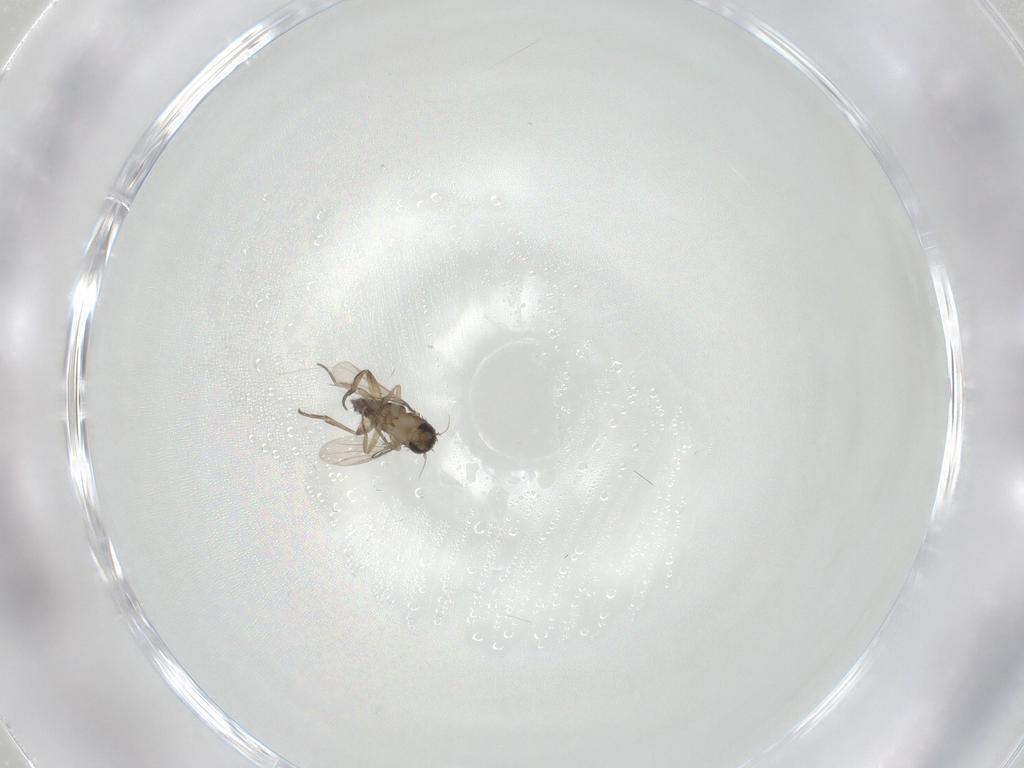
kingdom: Animalia
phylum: Arthropoda
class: Insecta
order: Diptera
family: Phoridae
